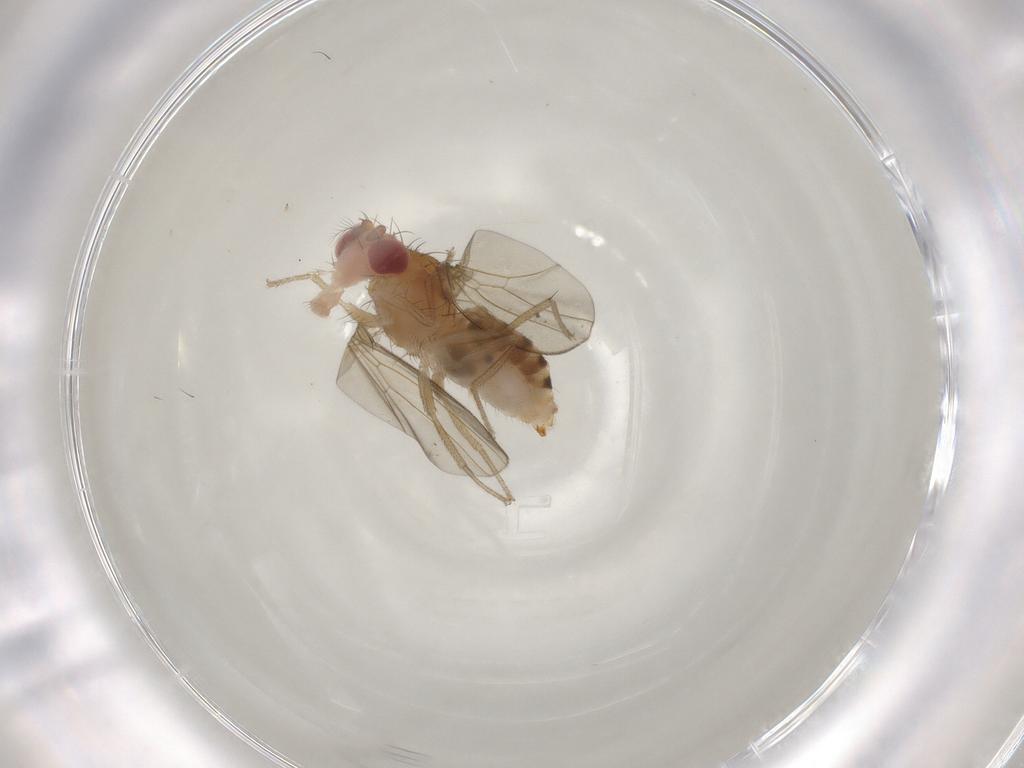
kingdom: Animalia
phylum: Arthropoda
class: Insecta
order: Diptera
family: Drosophilidae
